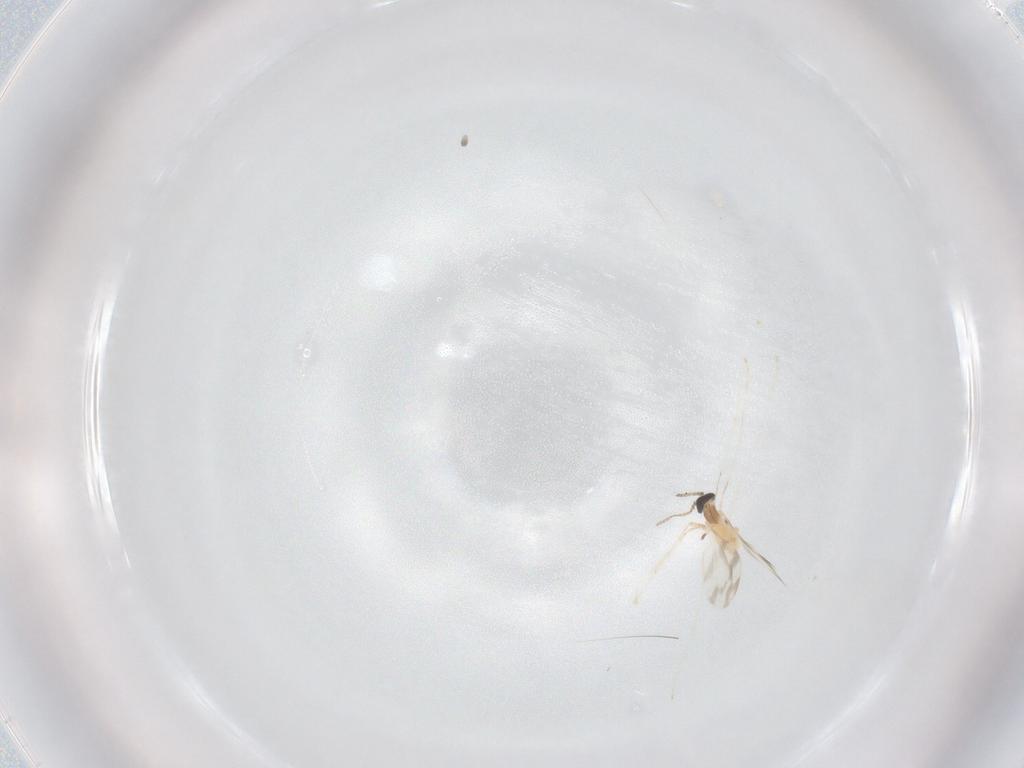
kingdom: Animalia
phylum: Arthropoda
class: Insecta
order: Diptera
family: Cecidomyiidae
